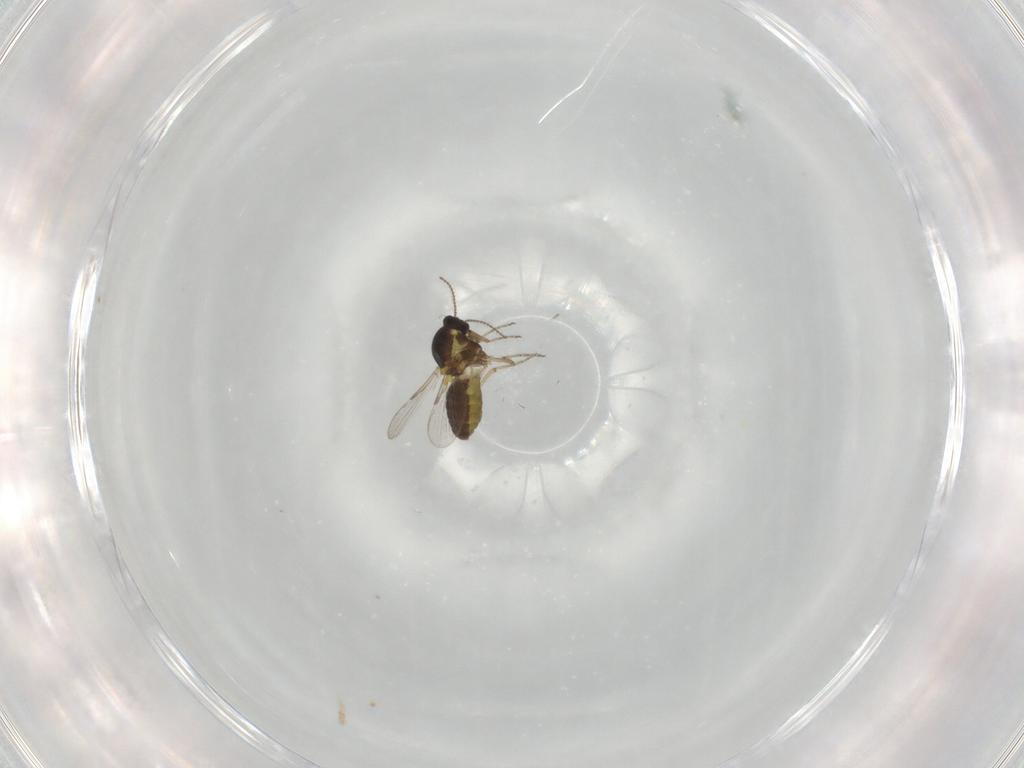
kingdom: Animalia
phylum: Arthropoda
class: Insecta
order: Diptera
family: Ceratopogonidae
